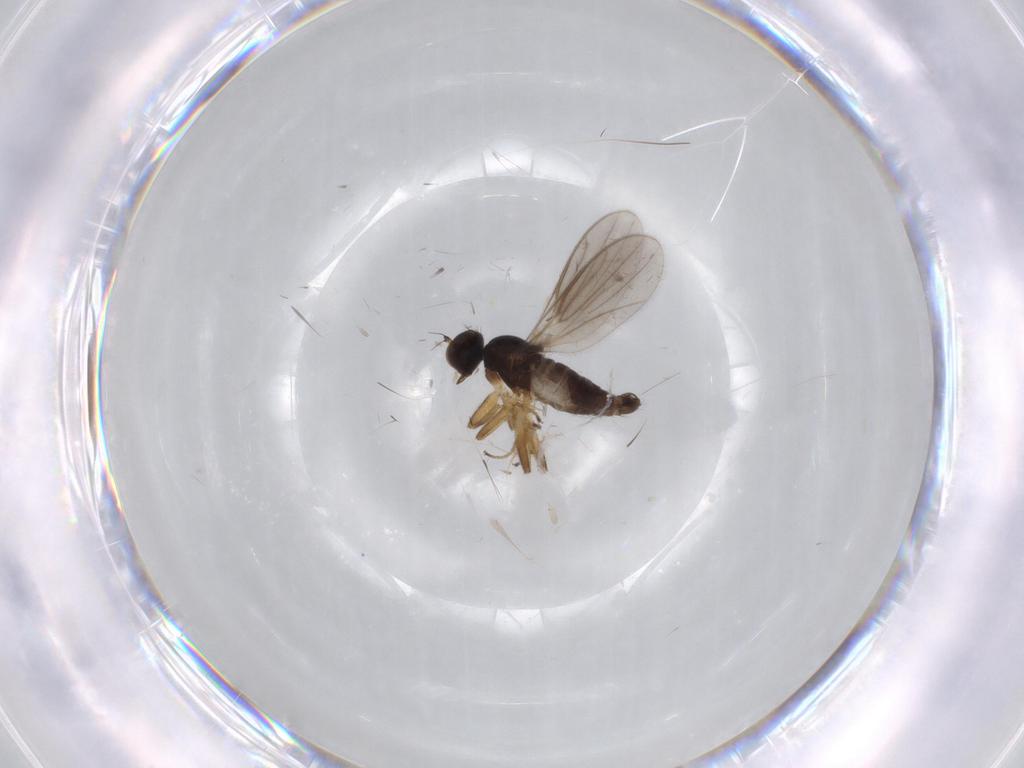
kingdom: Animalia
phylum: Arthropoda
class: Insecta
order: Diptera
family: Hybotidae
